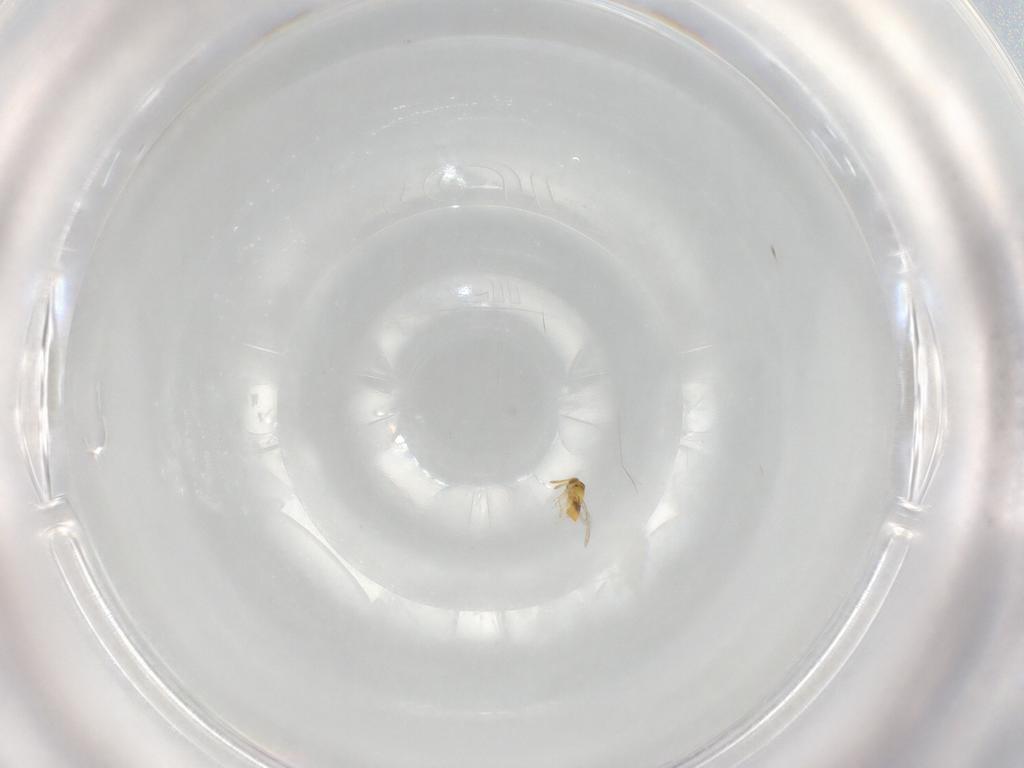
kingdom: Animalia
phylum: Arthropoda
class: Insecta
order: Hymenoptera
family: Aphelinidae
